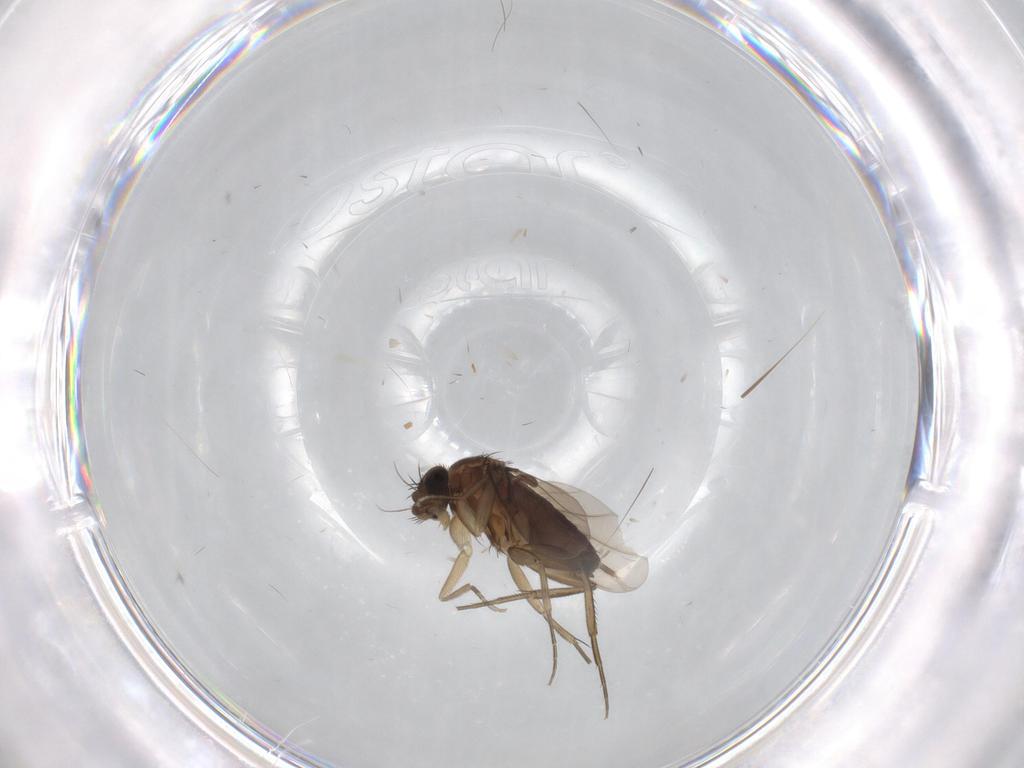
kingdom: Animalia
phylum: Arthropoda
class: Insecta
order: Diptera
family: Phoridae
